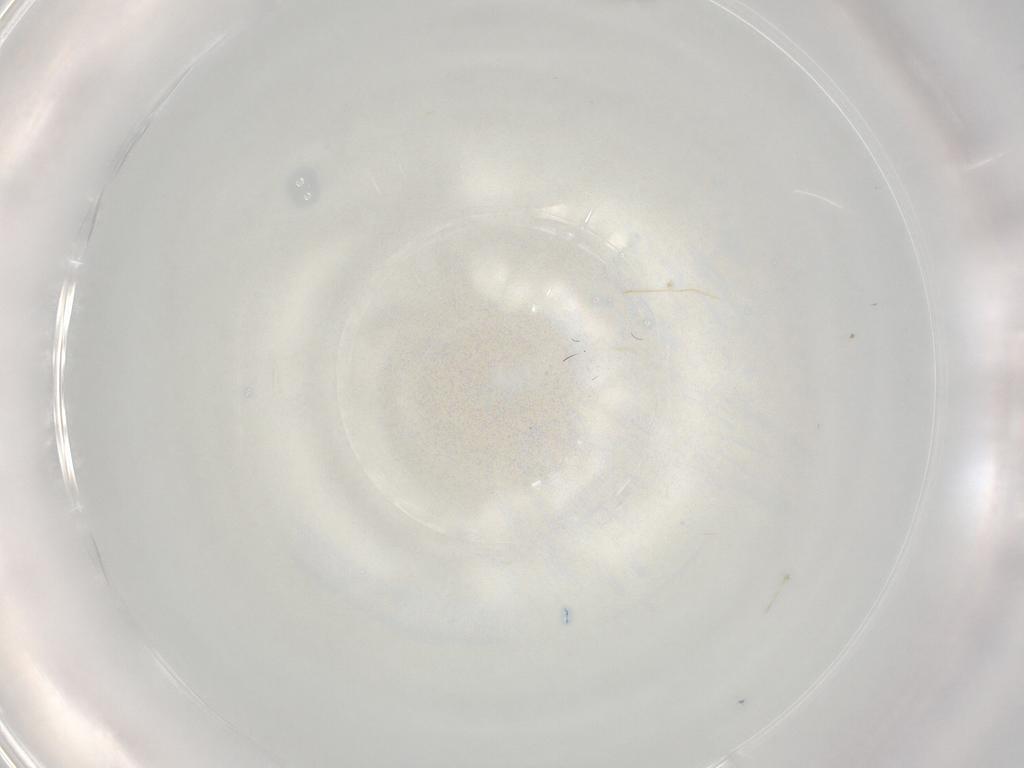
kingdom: Animalia
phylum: Arthropoda
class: Insecta
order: Hymenoptera
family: Mymaridae
